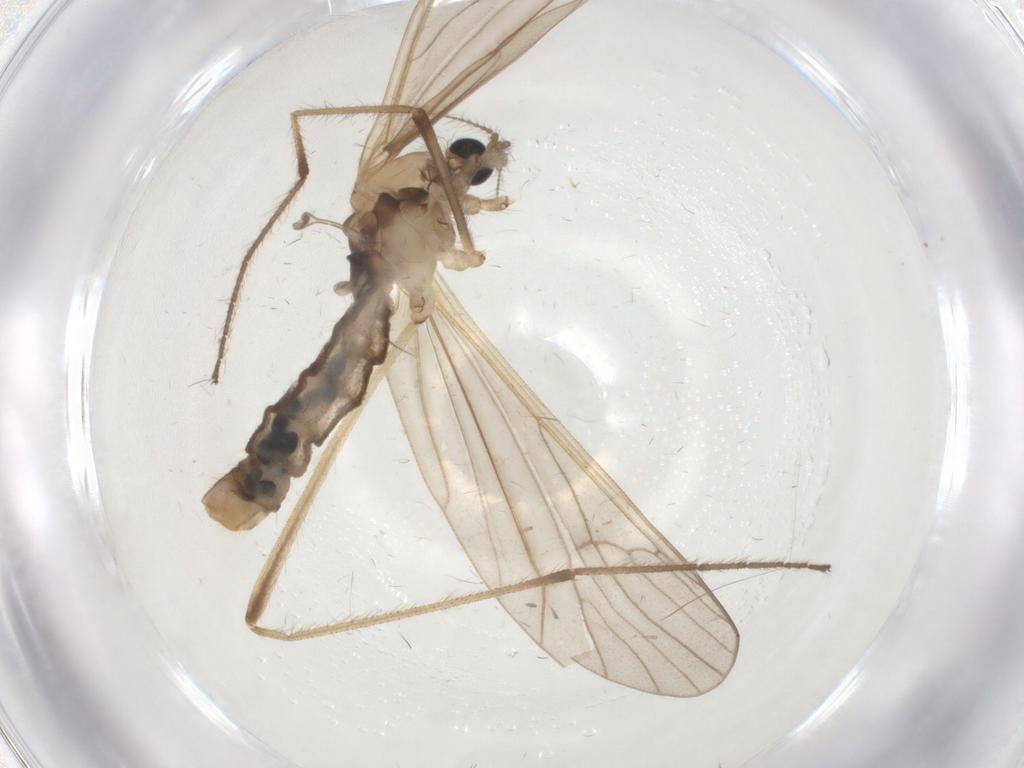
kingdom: Animalia
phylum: Arthropoda
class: Insecta
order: Diptera
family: Limoniidae
